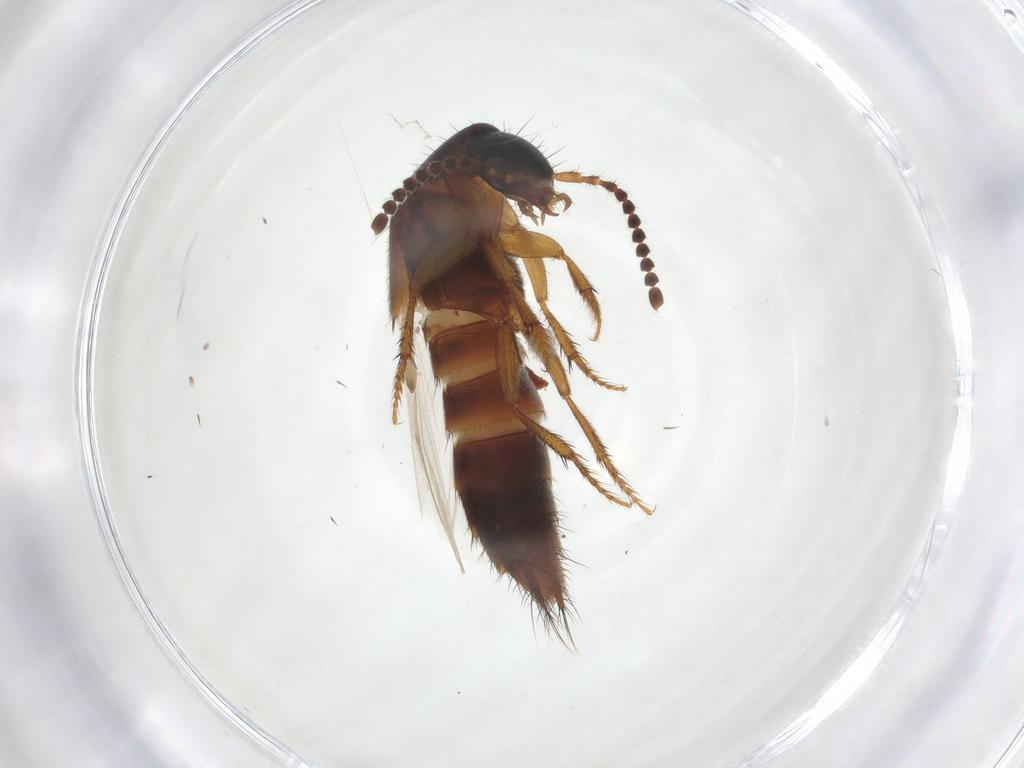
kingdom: Animalia
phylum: Arthropoda
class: Insecta
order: Coleoptera
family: Staphylinidae
